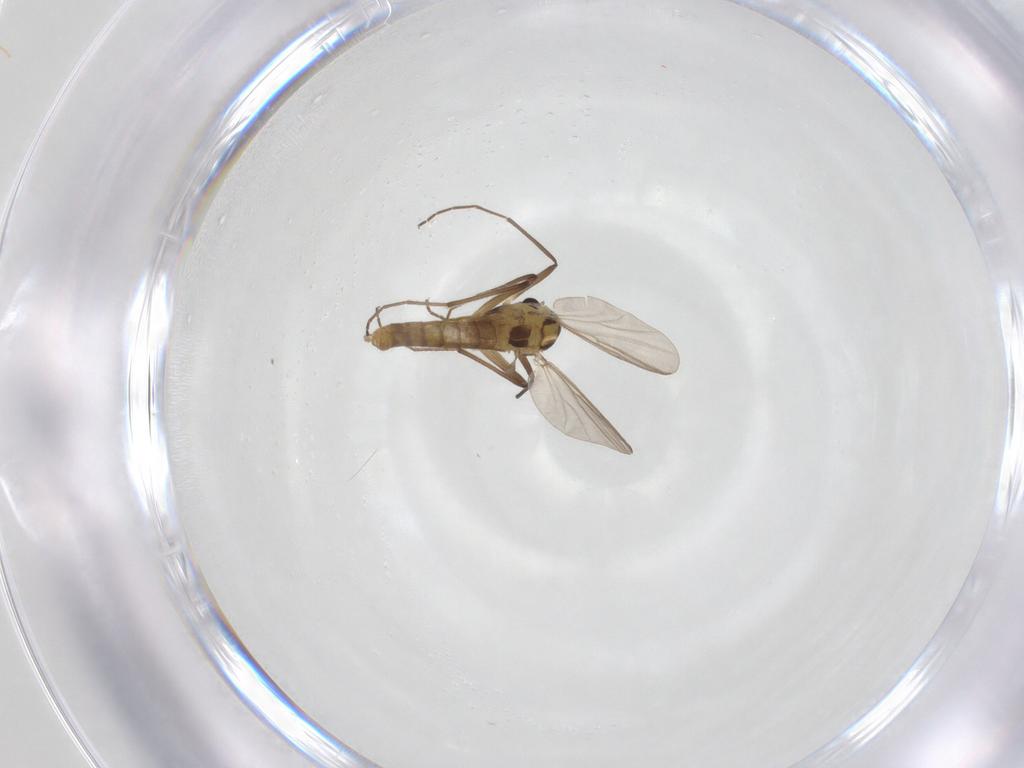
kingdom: Animalia
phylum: Arthropoda
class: Insecta
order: Diptera
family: Chironomidae
